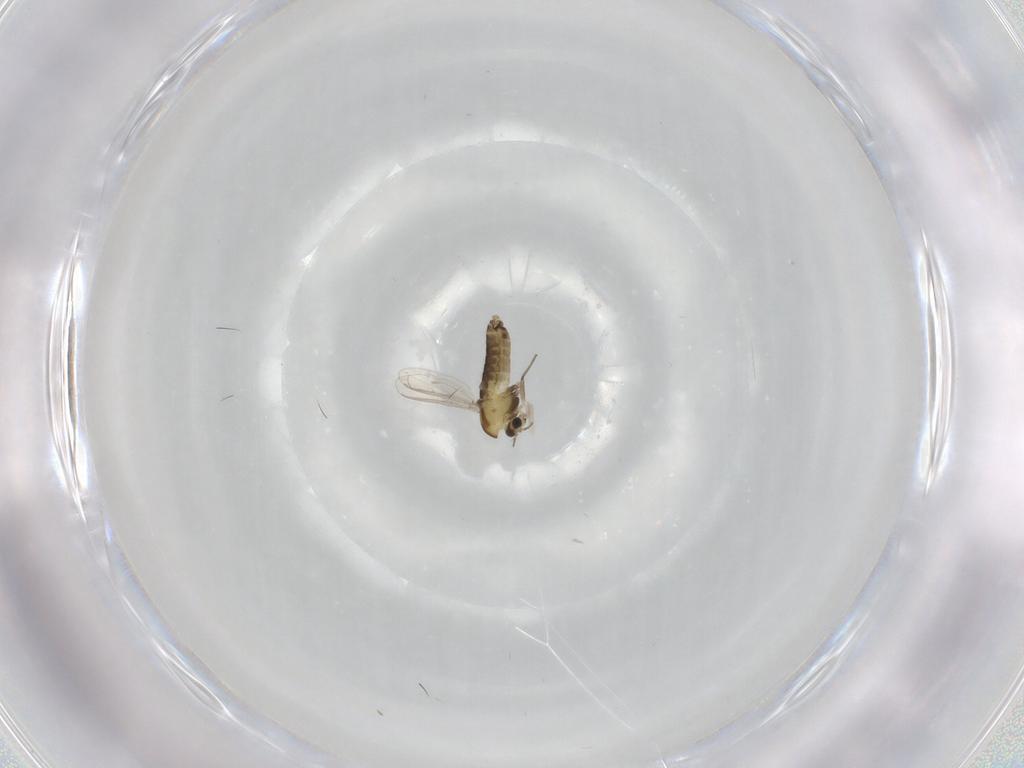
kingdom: Animalia
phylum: Arthropoda
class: Insecta
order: Diptera
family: Chironomidae
